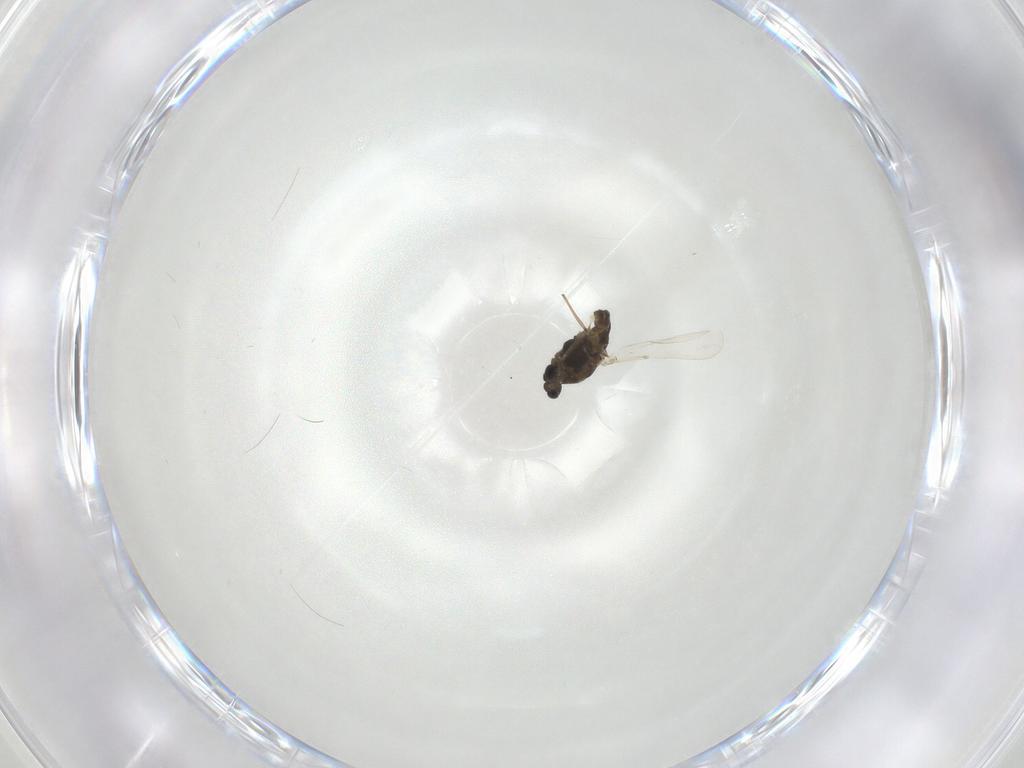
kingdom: Animalia
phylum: Arthropoda
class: Insecta
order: Diptera
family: Chironomidae
